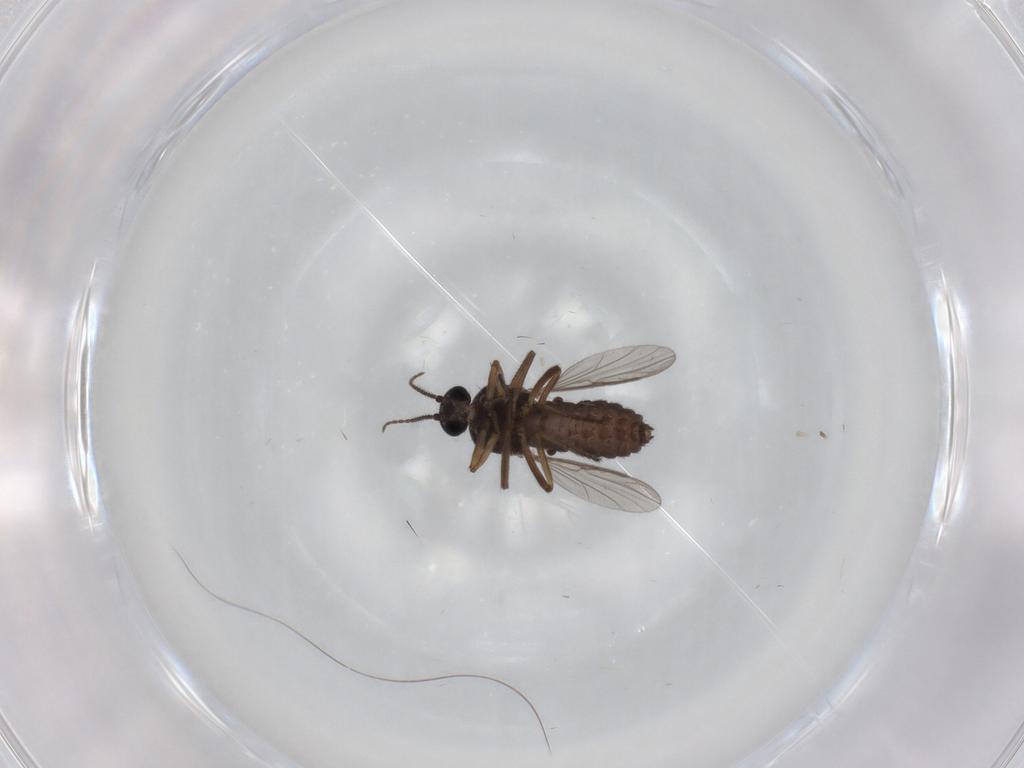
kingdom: Animalia
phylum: Arthropoda
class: Insecta
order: Diptera
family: Ceratopogonidae
